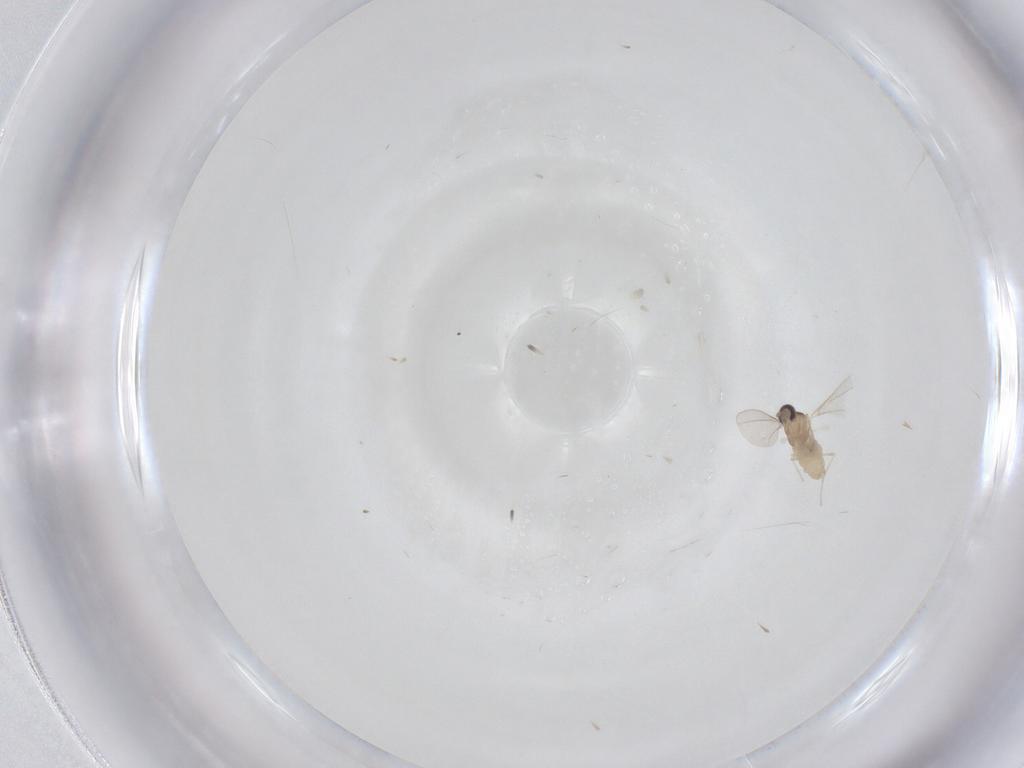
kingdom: Animalia
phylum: Arthropoda
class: Insecta
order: Diptera
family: Cecidomyiidae
